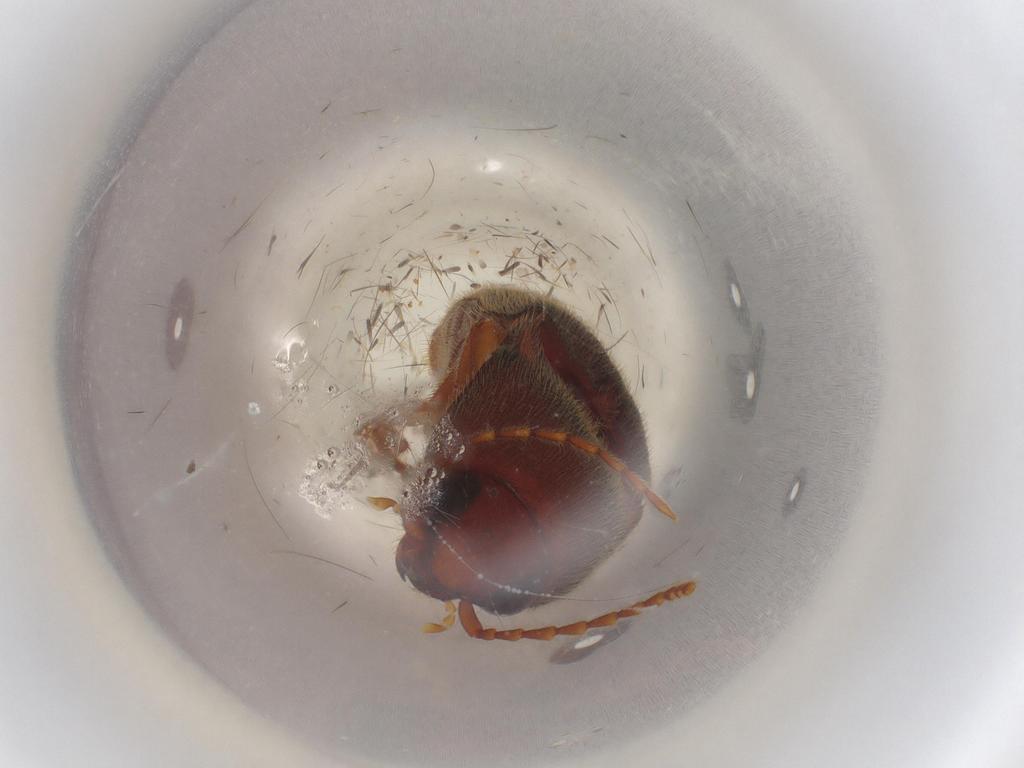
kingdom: Animalia
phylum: Arthropoda
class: Insecta
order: Coleoptera
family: Elateridae
